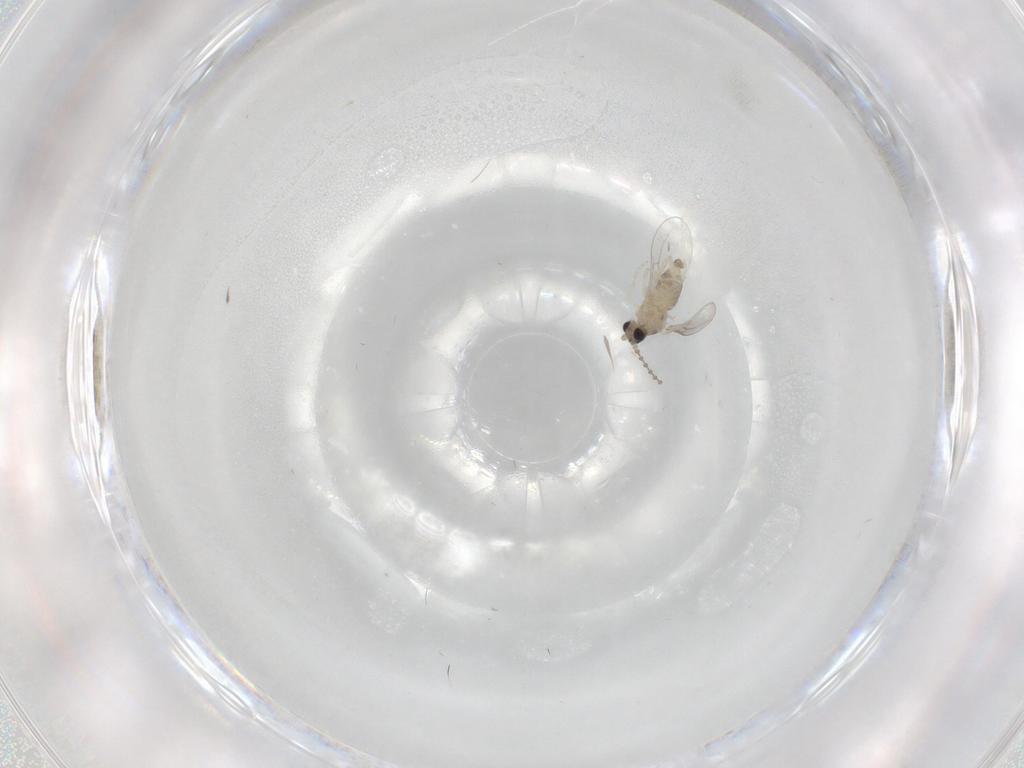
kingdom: Animalia
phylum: Arthropoda
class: Insecta
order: Diptera
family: Cecidomyiidae
